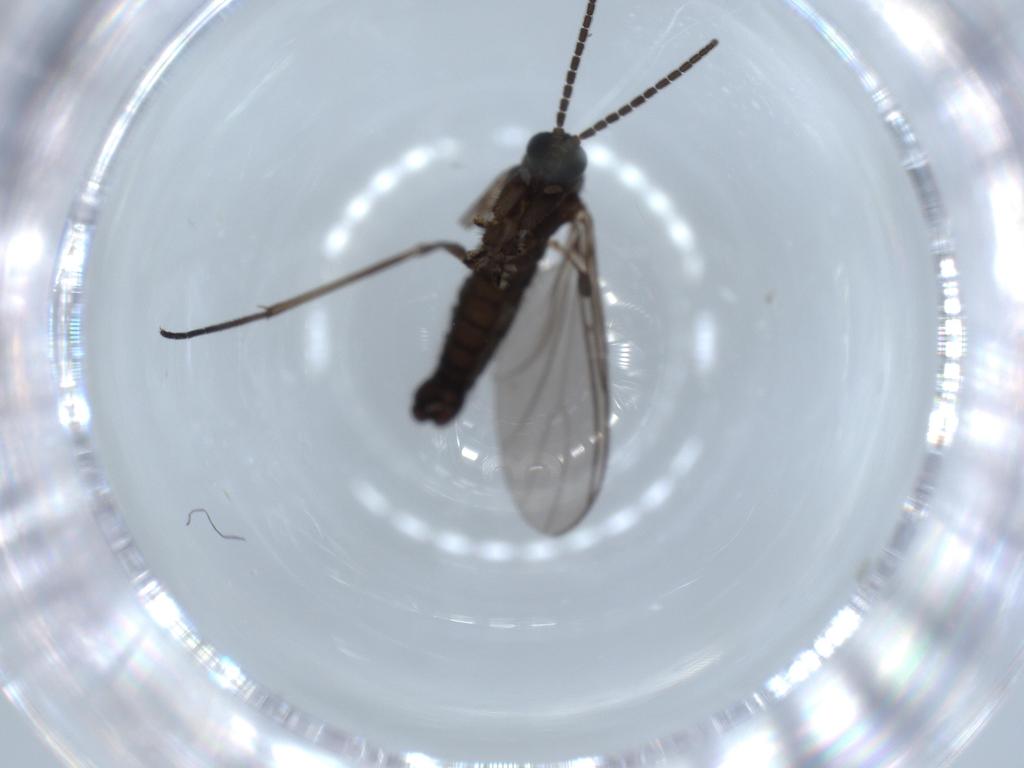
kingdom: Animalia
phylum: Arthropoda
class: Insecta
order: Diptera
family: Sciaridae
